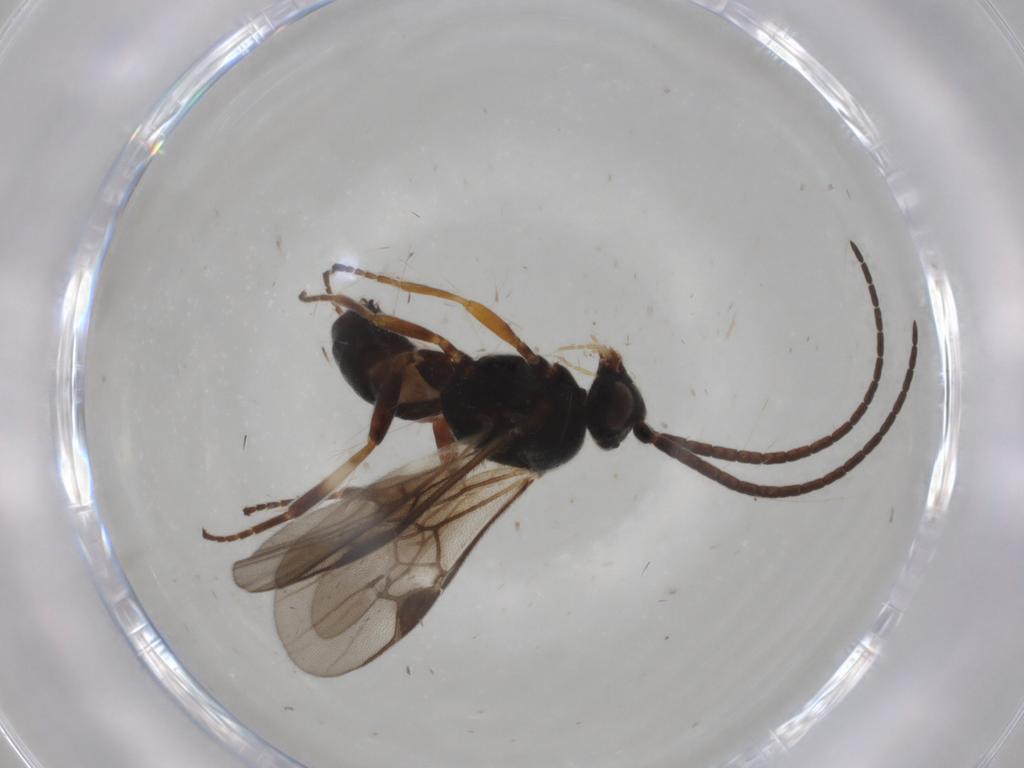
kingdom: Animalia
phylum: Arthropoda
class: Insecta
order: Hymenoptera
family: Braconidae
